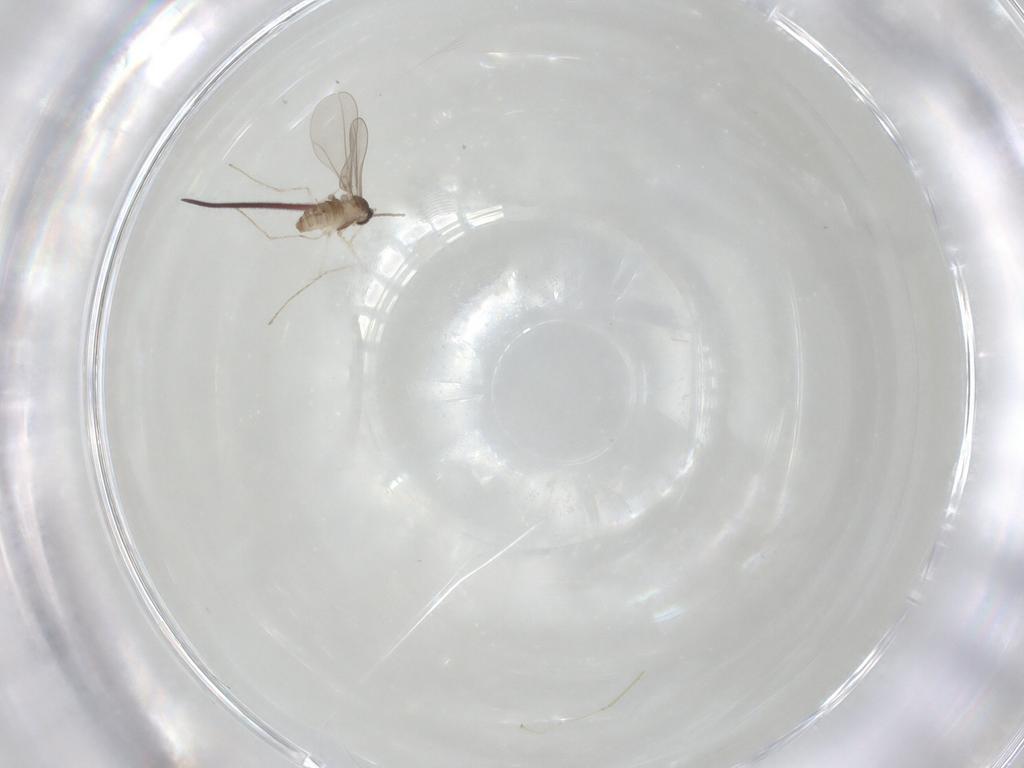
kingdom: Animalia
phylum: Arthropoda
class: Insecta
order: Diptera
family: Cecidomyiidae
